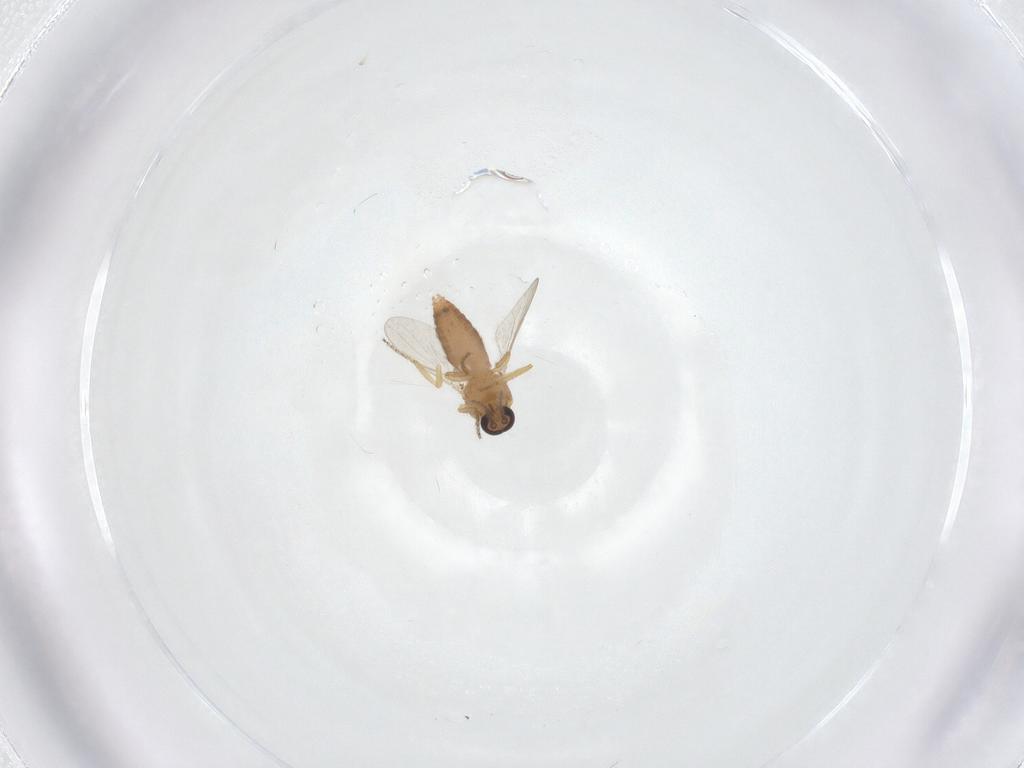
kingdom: Animalia
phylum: Arthropoda
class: Insecta
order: Diptera
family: Ceratopogonidae
